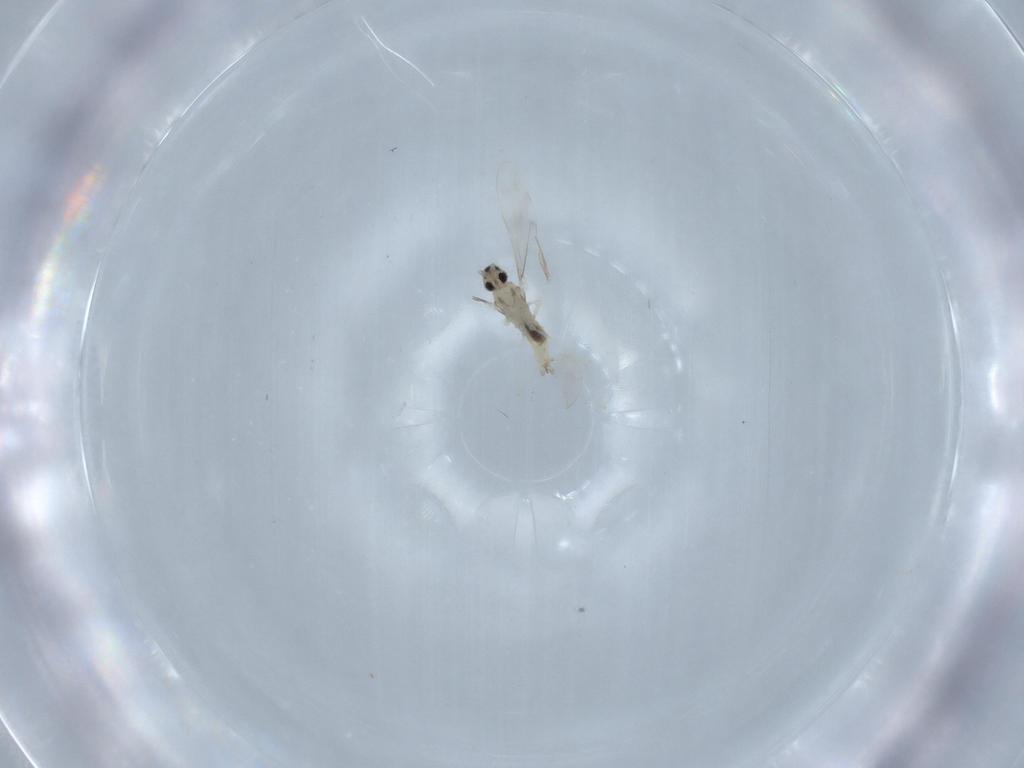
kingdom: Animalia
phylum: Arthropoda
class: Insecta
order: Diptera
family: Cecidomyiidae
